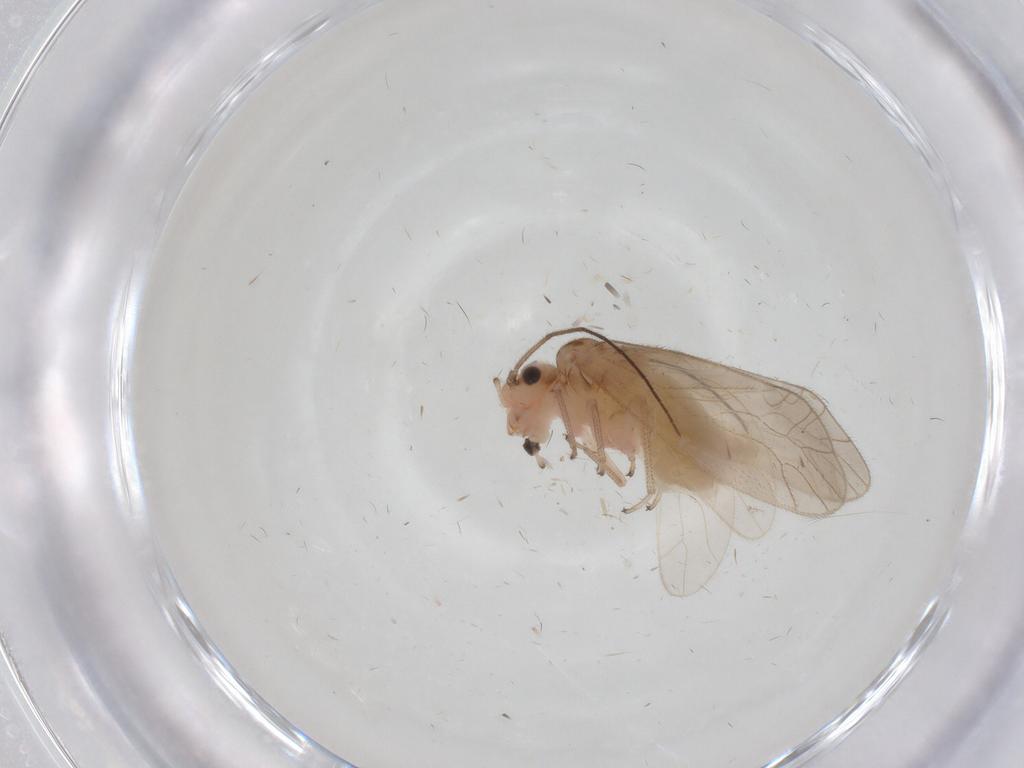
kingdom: Animalia
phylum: Arthropoda
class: Insecta
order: Psocodea
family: Caeciliusidae
